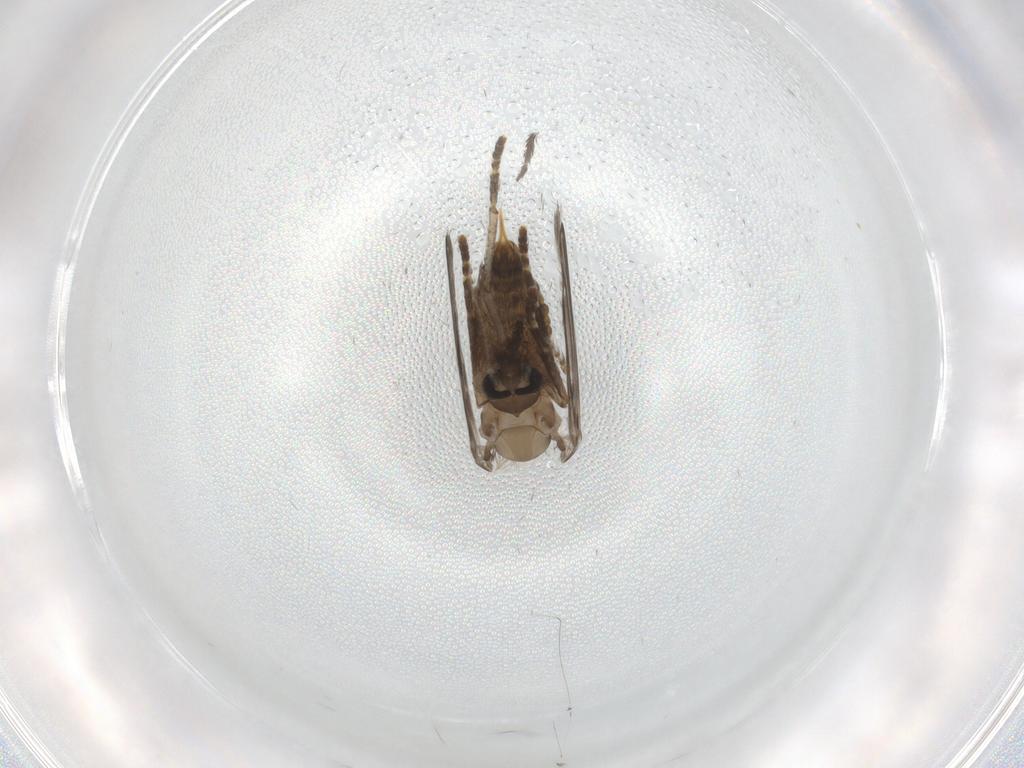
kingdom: Animalia
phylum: Arthropoda
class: Insecta
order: Diptera
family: Psychodidae
